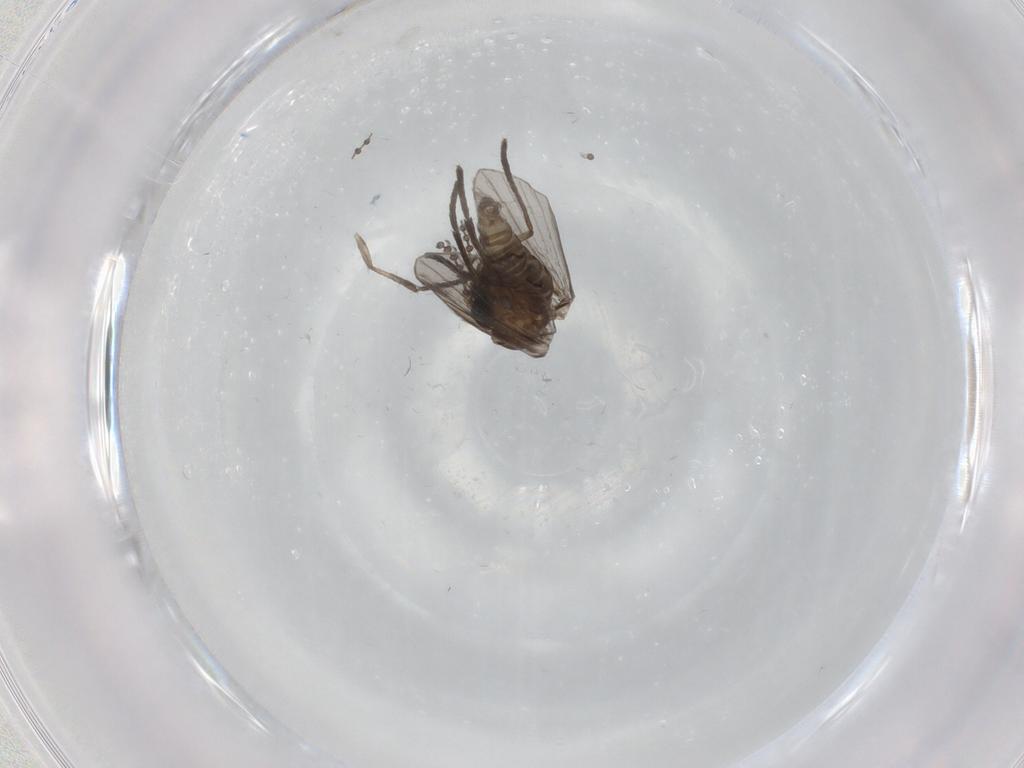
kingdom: Animalia
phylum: Arthropoda
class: Insecta
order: Diptera
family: Psychodidae
